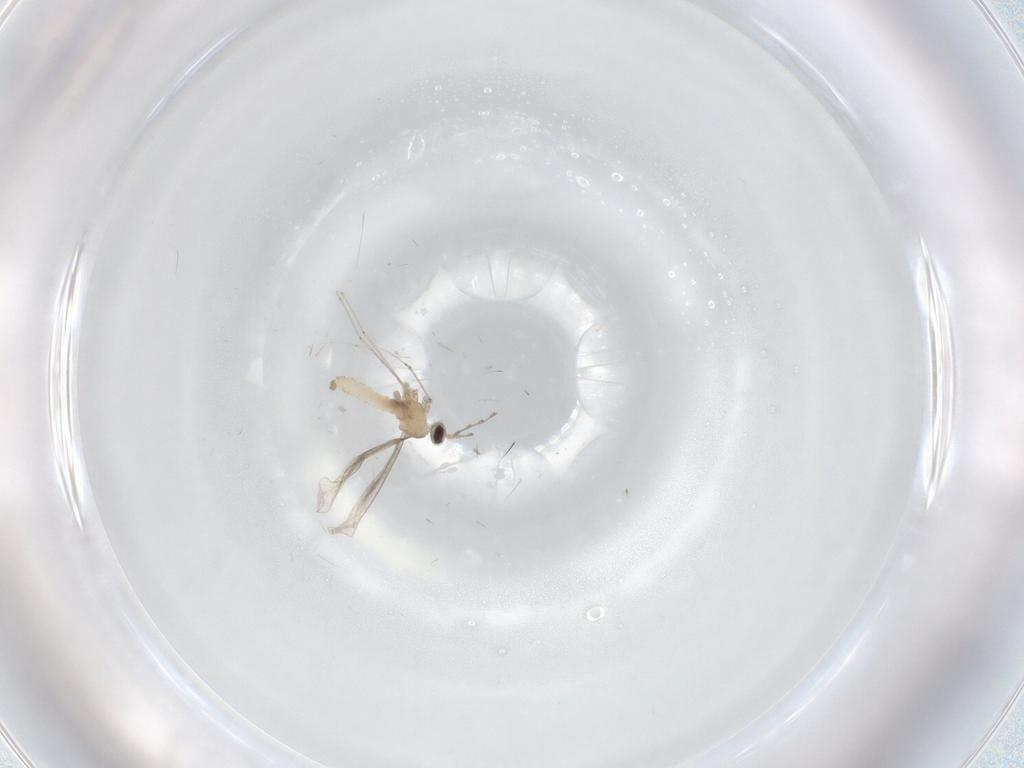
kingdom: Animalia
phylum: Arthropoda
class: Insecta
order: Diptera
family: Cecidomyiidae
